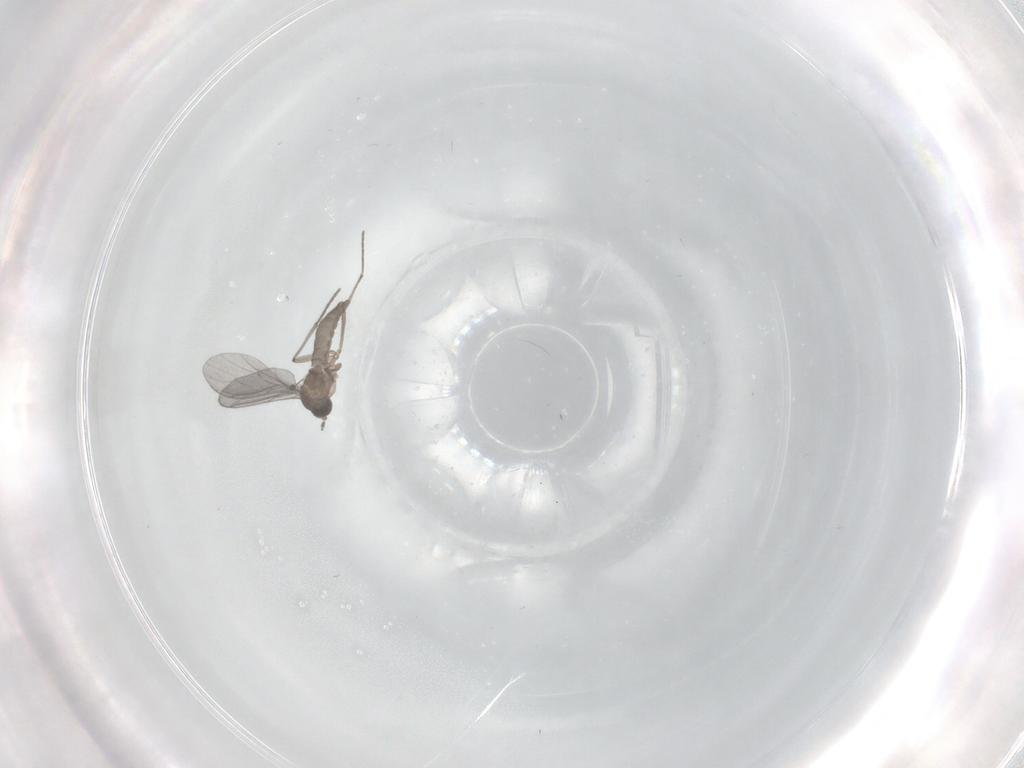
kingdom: Animalia
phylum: Arthropoda
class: Insecta
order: Diptera
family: Sciaridae
